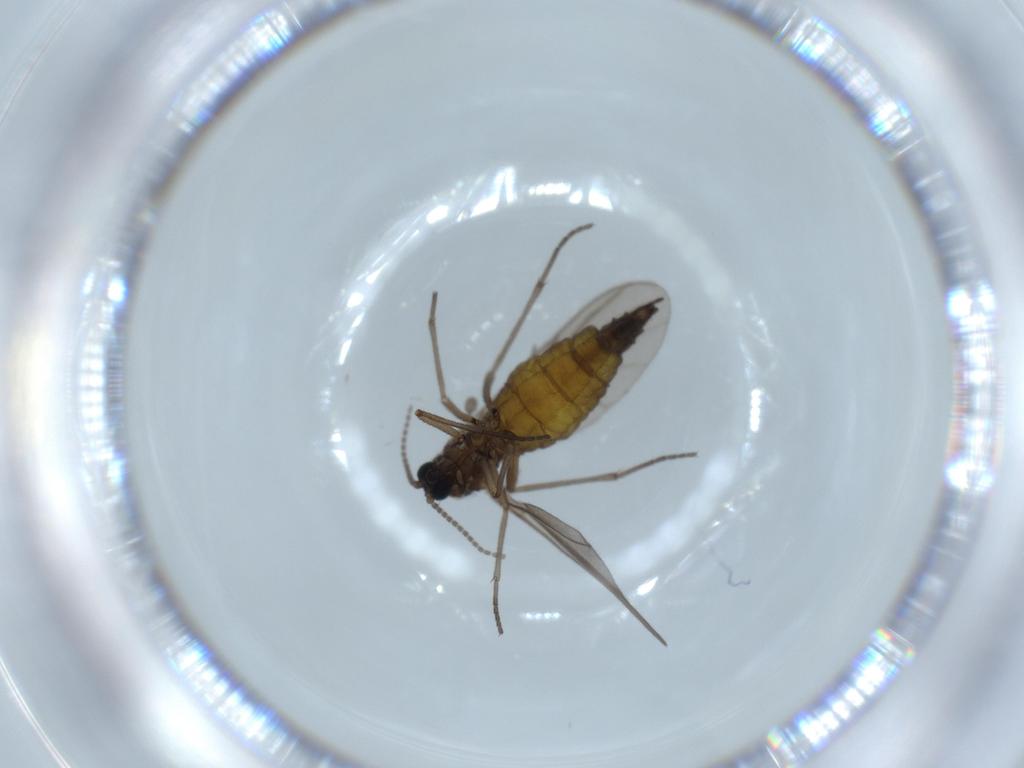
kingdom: Animalia
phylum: Arthropoda
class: Insecta
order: Diptera
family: Sciaridae
